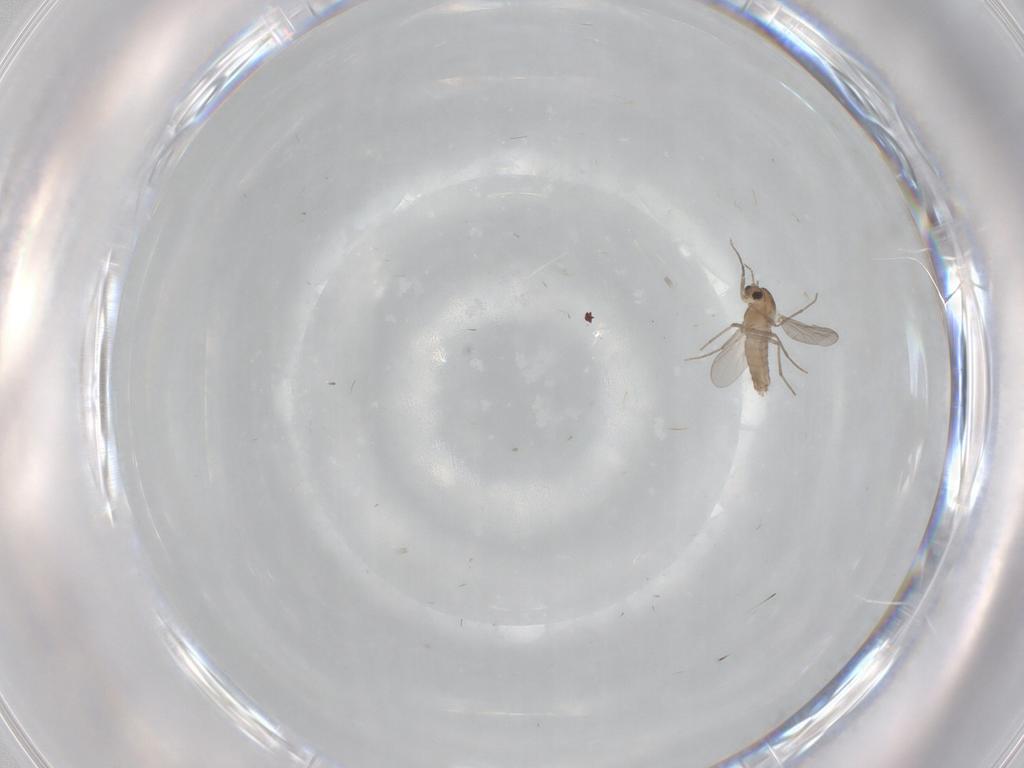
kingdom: Animalia
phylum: Arthropoda
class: Insecta
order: Diptera
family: Chironomidae
